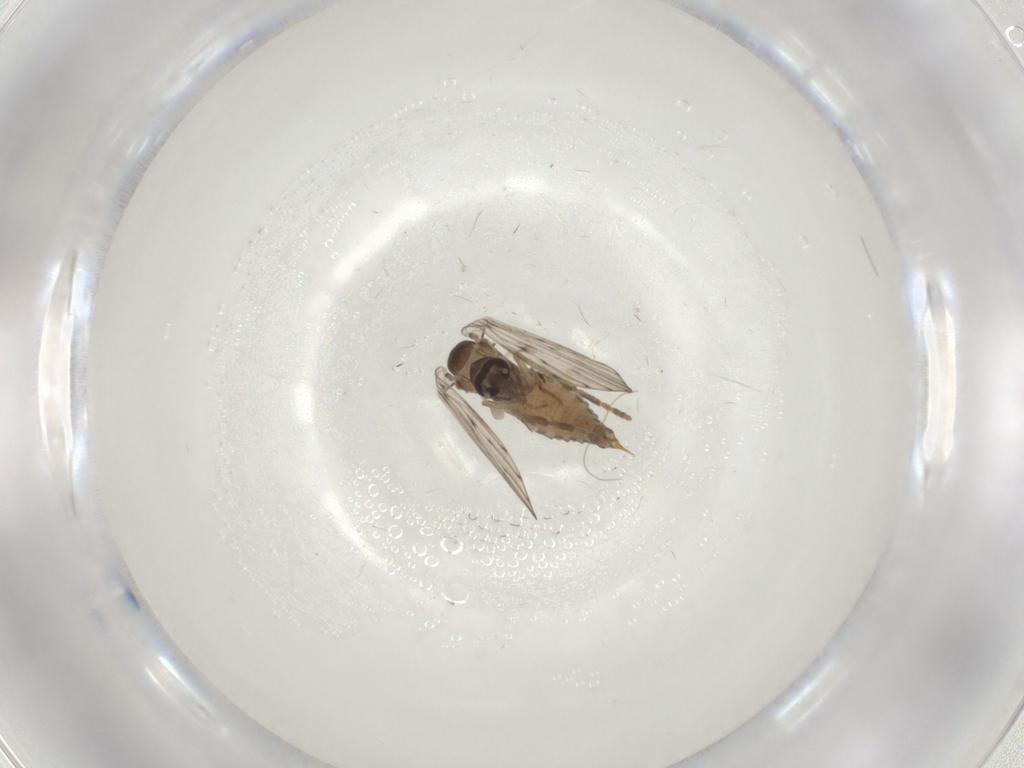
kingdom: Animalia
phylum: Arthropoda
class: Insecta
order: Diptera
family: Psychodidae
